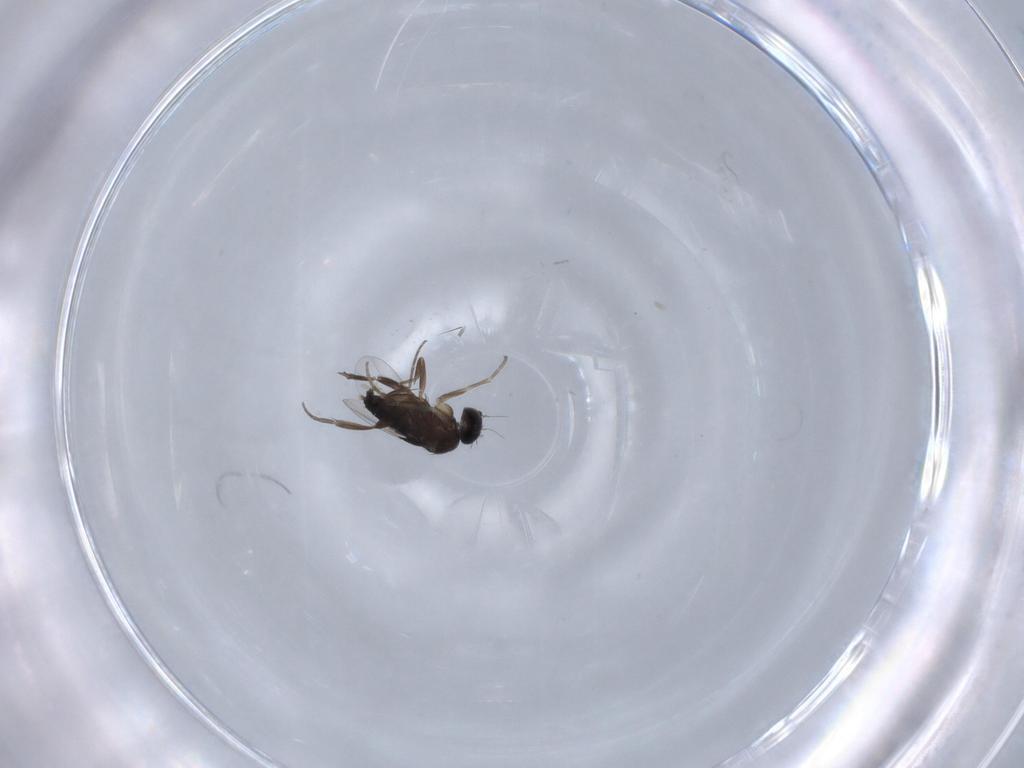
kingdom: Animalia
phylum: Arthropoda
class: Insecta
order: Diptera
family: Phoridae
